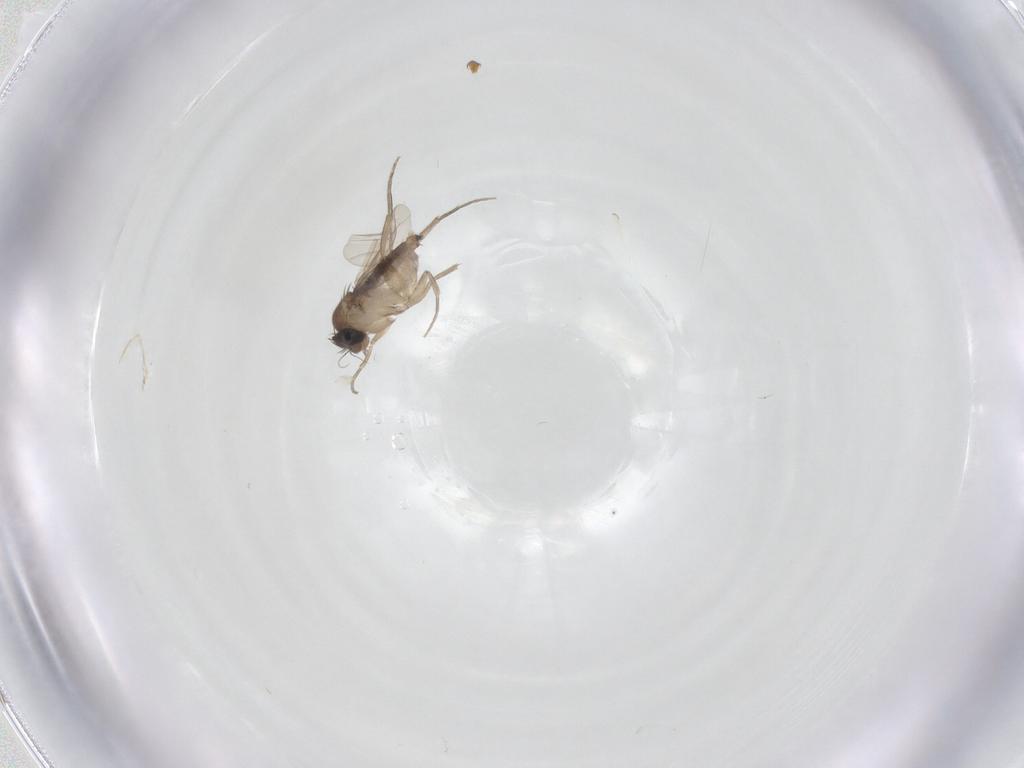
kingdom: Animalia
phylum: Arthropoda
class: Insecta
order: Diptera
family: Phoridae
